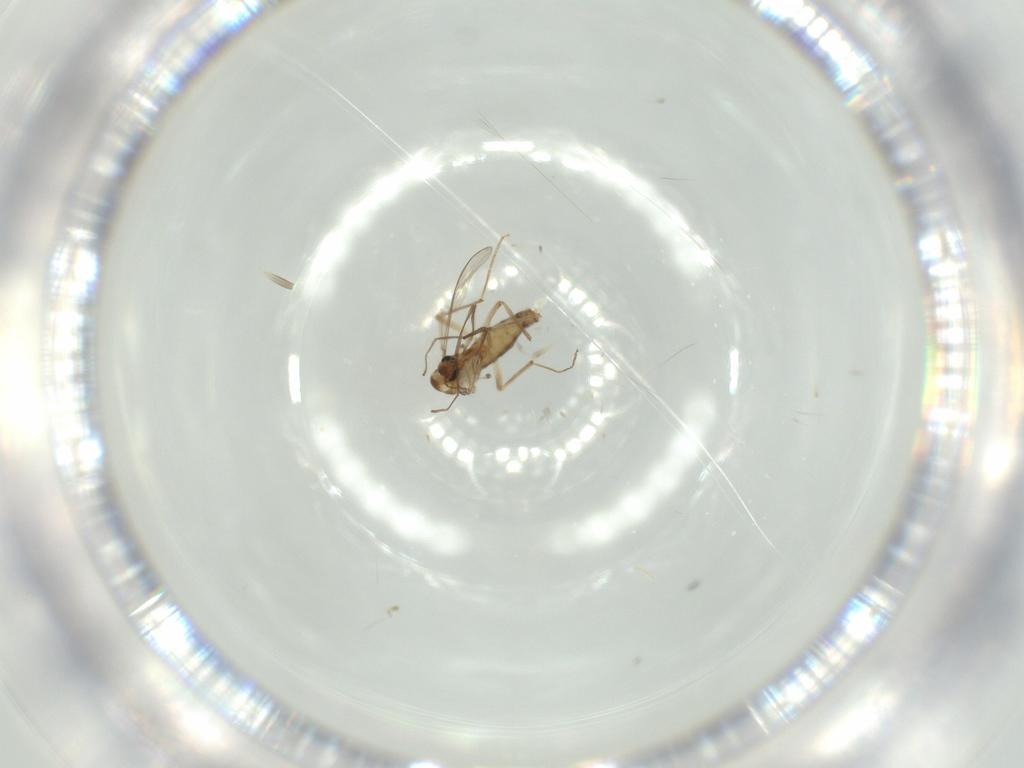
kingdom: Animalia
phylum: Arthropoda
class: Insecta
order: Diptera
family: Chironomidae
